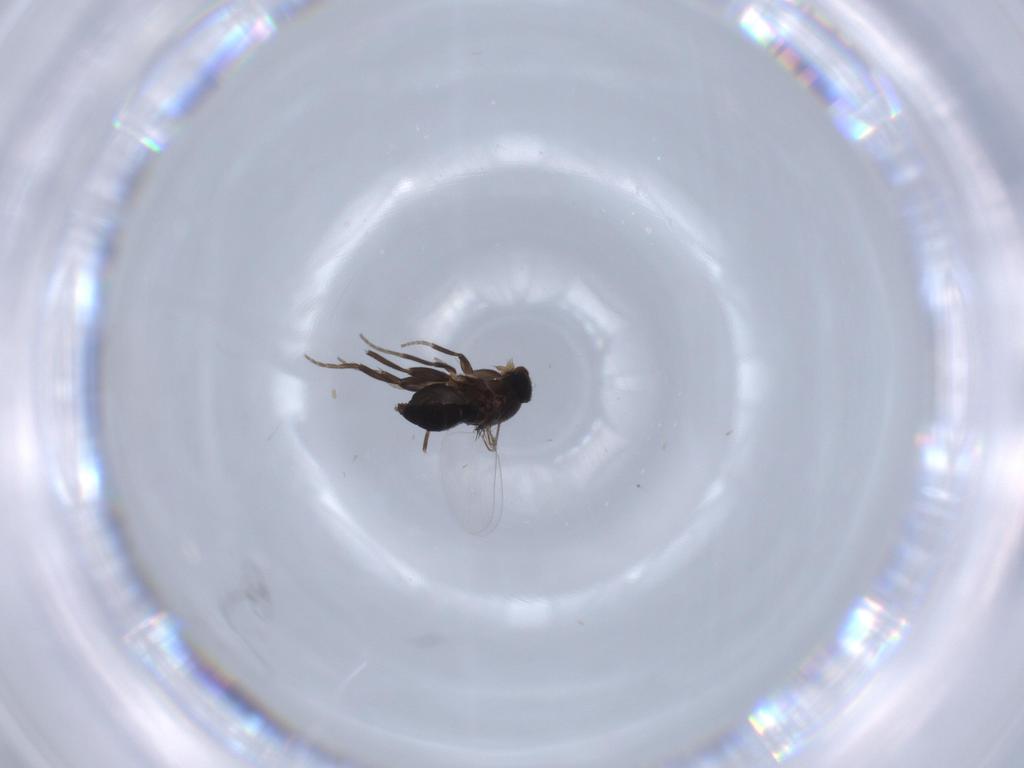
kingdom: Animalia
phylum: Arthropoda
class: Insecta
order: Diptera
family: Phoridae
